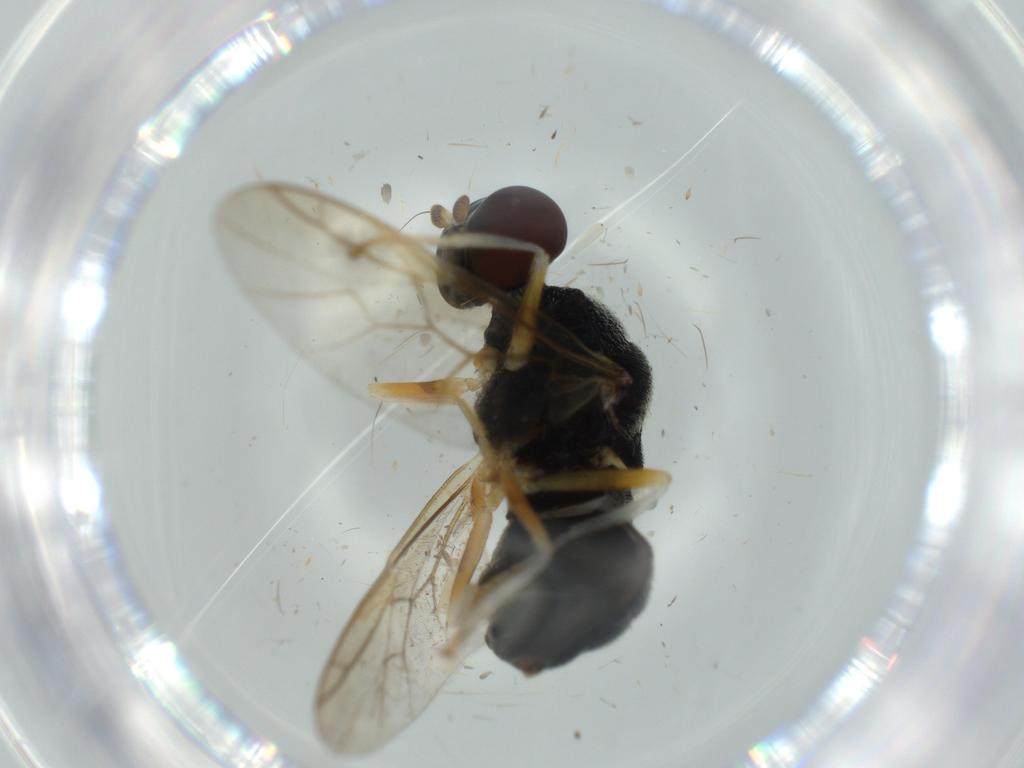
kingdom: Animalia
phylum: Arthropoda
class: Insecta
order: Diptera
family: Stratiomyidae
